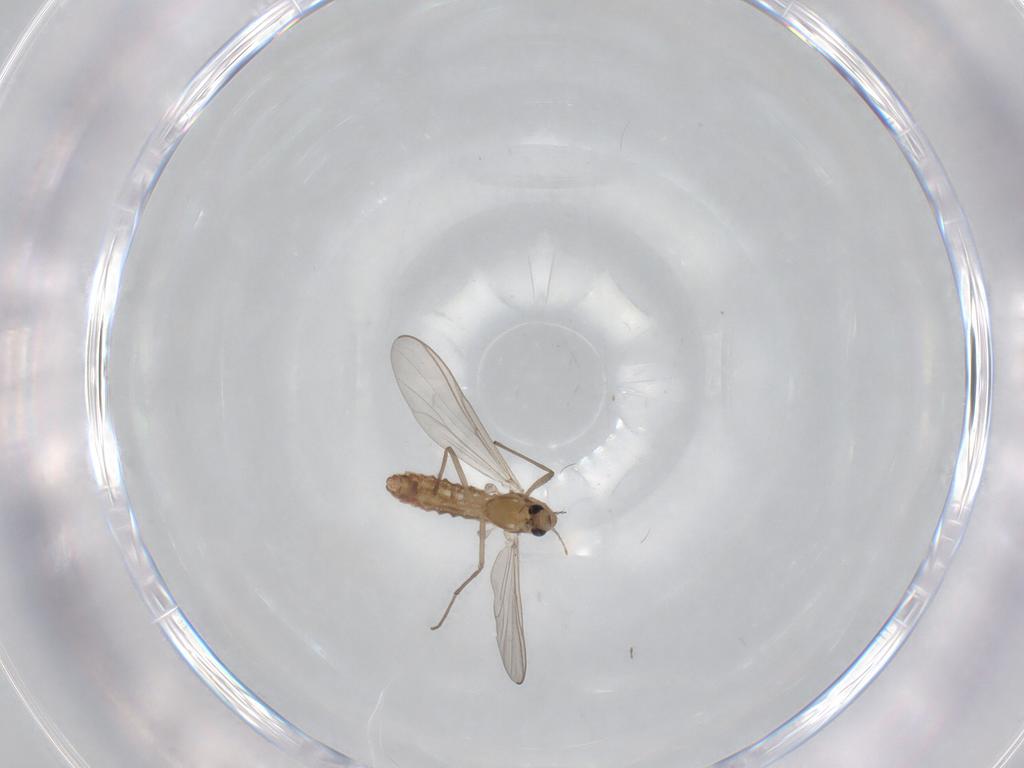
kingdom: Animalia
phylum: Arthropoda
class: Insecta
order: Diptera
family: Chironomidae
